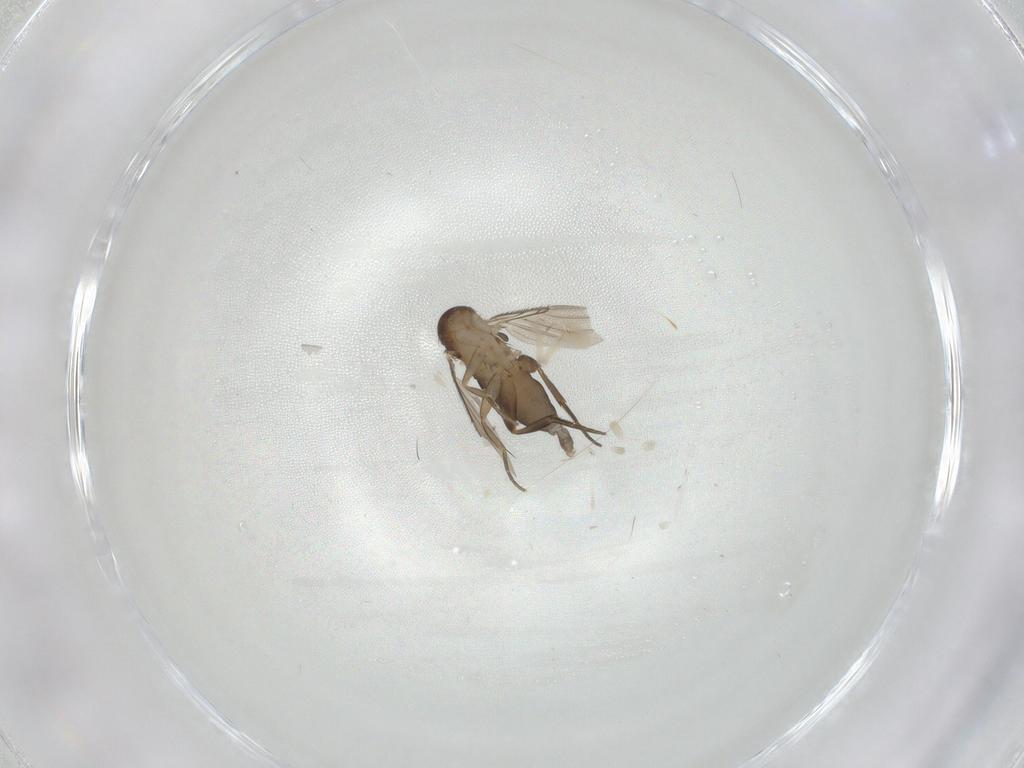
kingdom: Animalia
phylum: Arthropoda
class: Insecta
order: Diptera
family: Phoridae
